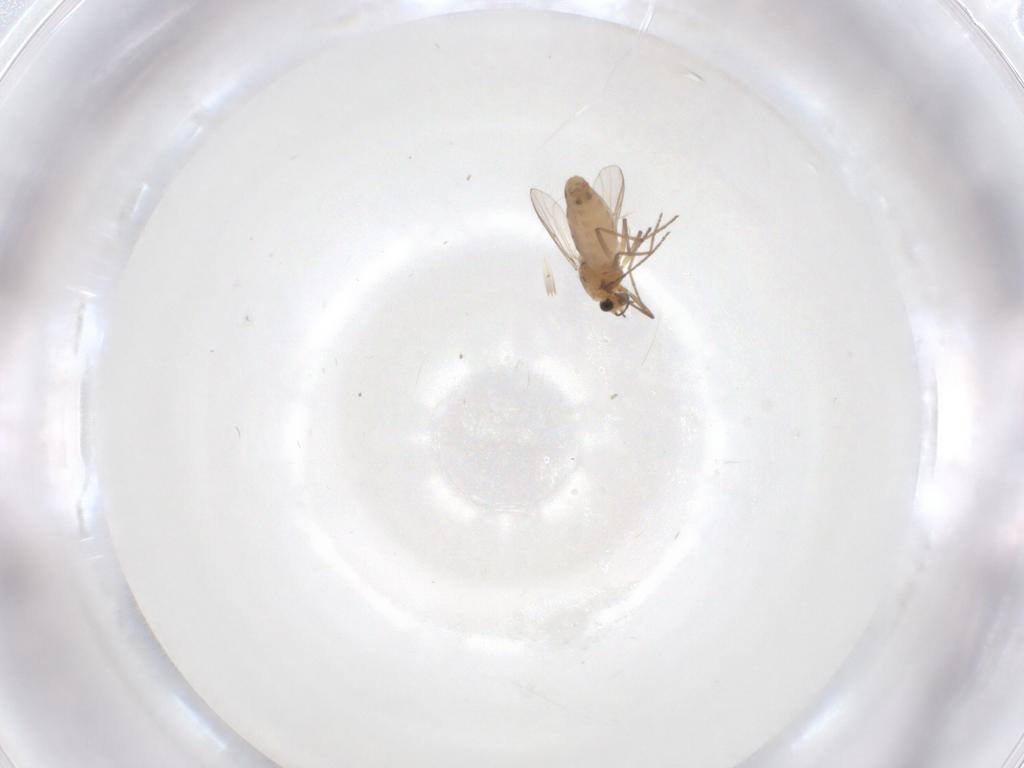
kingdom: Animalia
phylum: Arthropoda
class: Insecta
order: Diptera
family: Chironomidae
